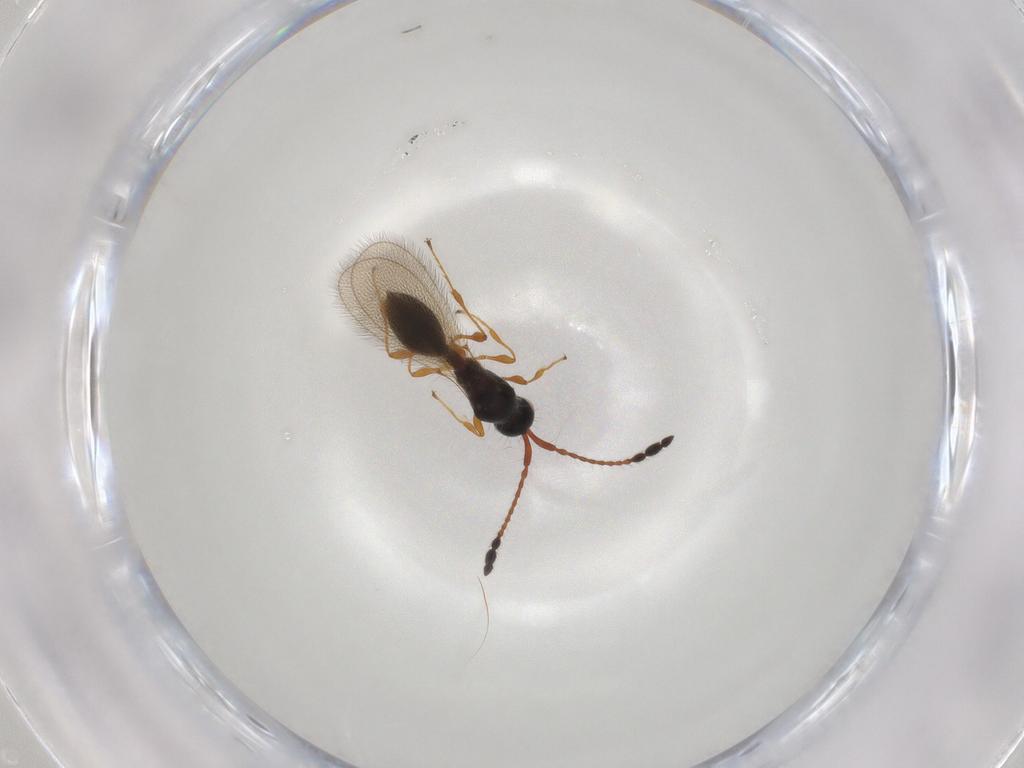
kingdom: Animalia
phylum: Arthropoda
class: Insecta
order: Hymenoptera
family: Diapriidae
